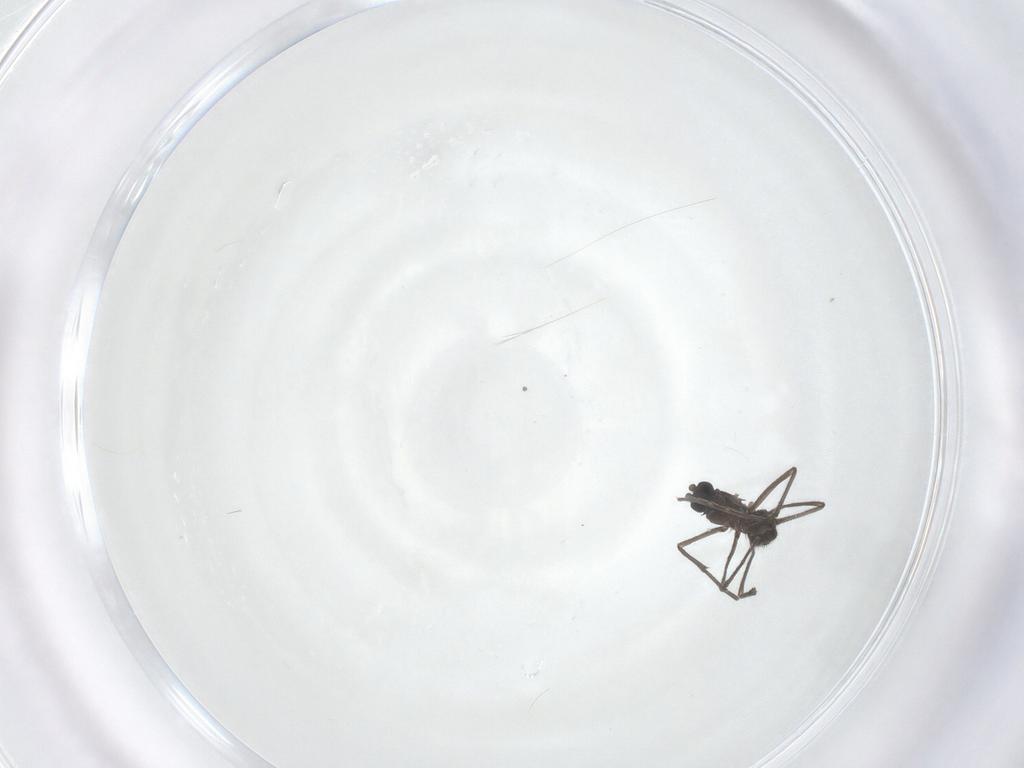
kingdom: Animalia
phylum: Arthropoda
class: Insecta
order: Diptera
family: Sciaridae
